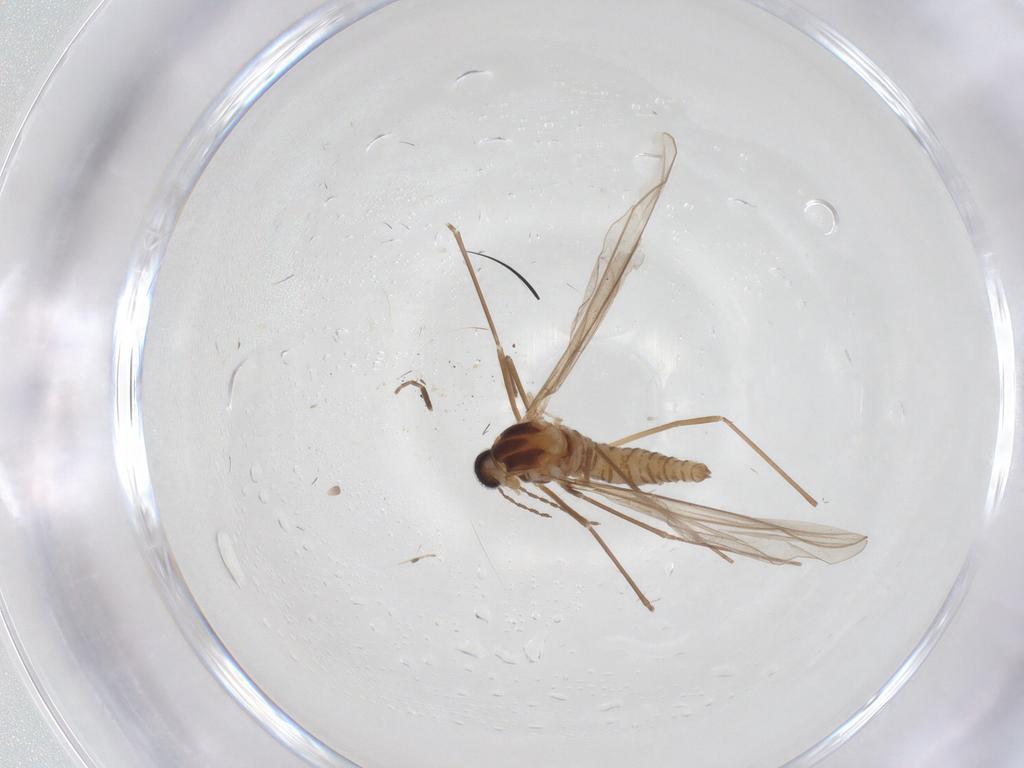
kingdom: Animalia
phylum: Arthropoda
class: Insecta
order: Diptera
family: Cecidomyiidae
